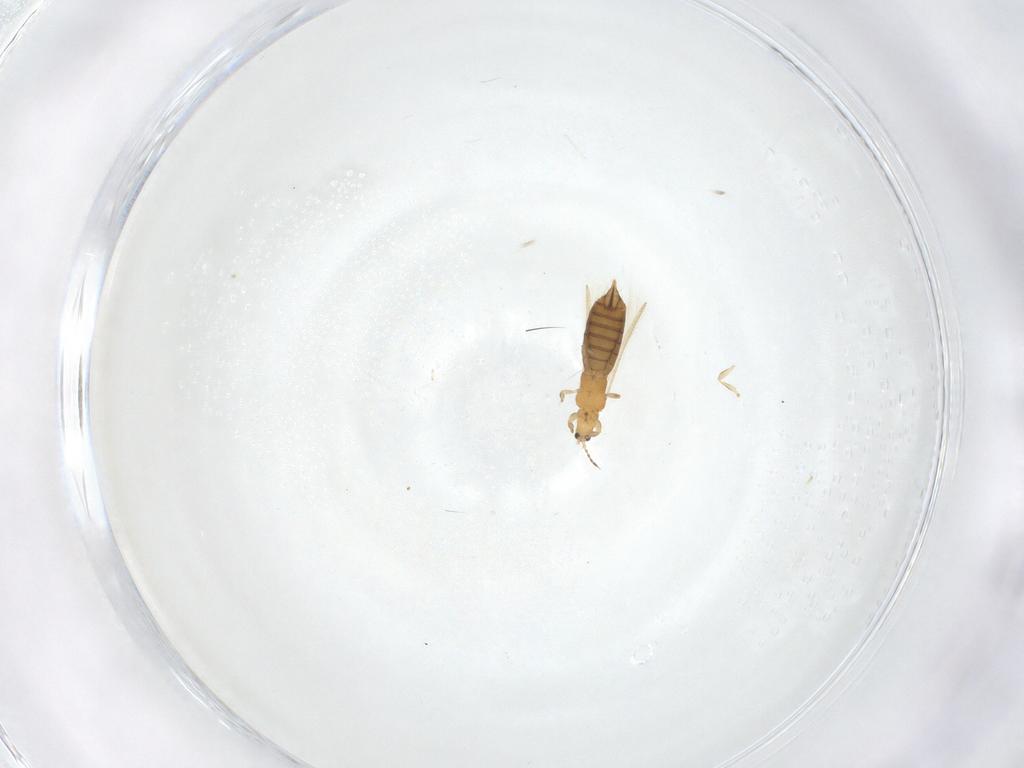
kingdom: Animalia
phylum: Arthropoda
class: Insecta
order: Thysanoptera
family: Thripidae
